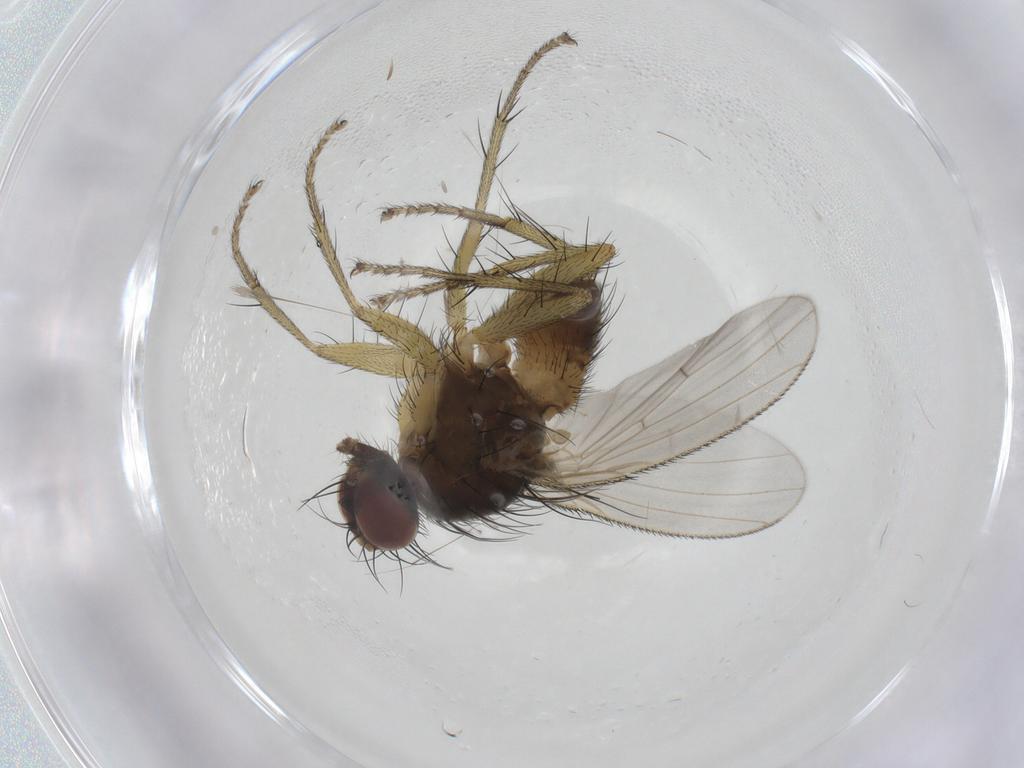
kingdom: Animalia
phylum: Arthropoda
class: Insecta
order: Diptera
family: Muscidae
